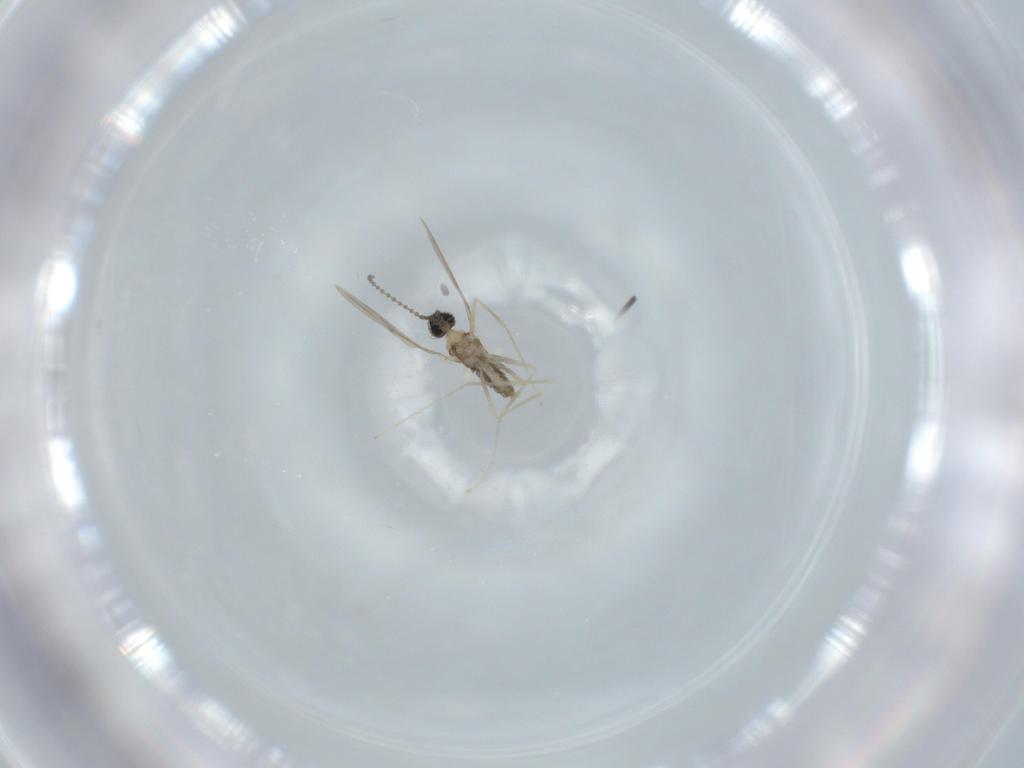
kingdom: Animalia
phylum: Arthropoda
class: Insecta
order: Diptera
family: Cecidomyiidae
